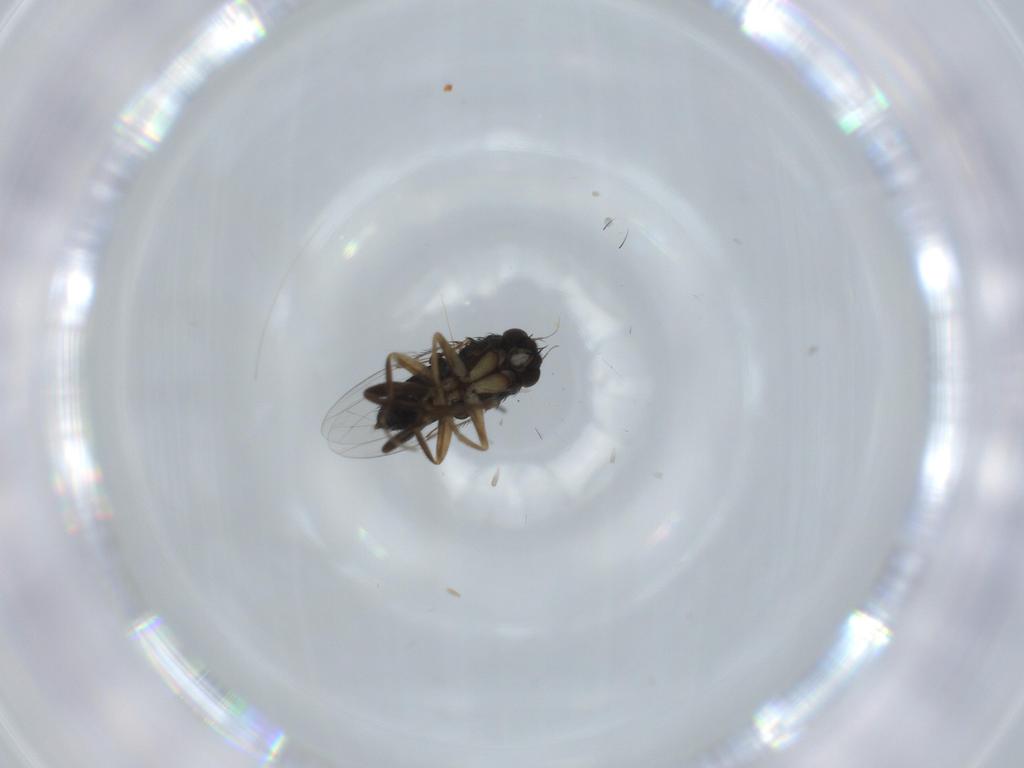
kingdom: Animalia
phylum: Arthropoda
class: Insecta
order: Diptera
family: Phoridae
